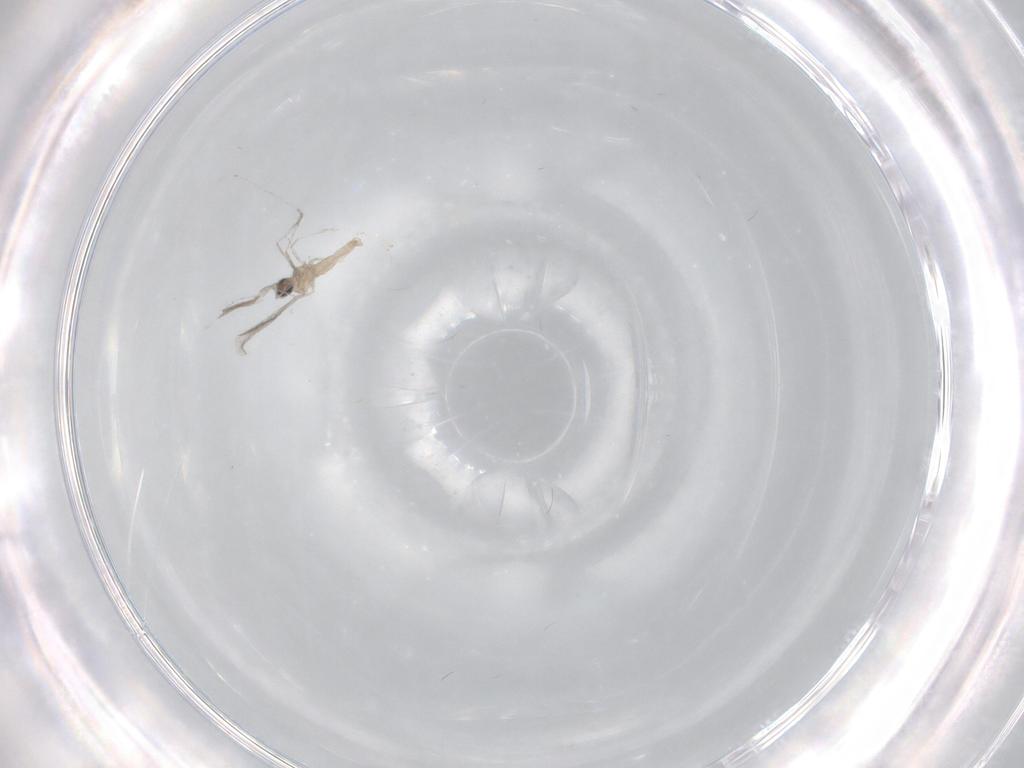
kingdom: Animalia
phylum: Arthropoda
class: Insecta
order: Diptera
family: Cecidomyiidae
